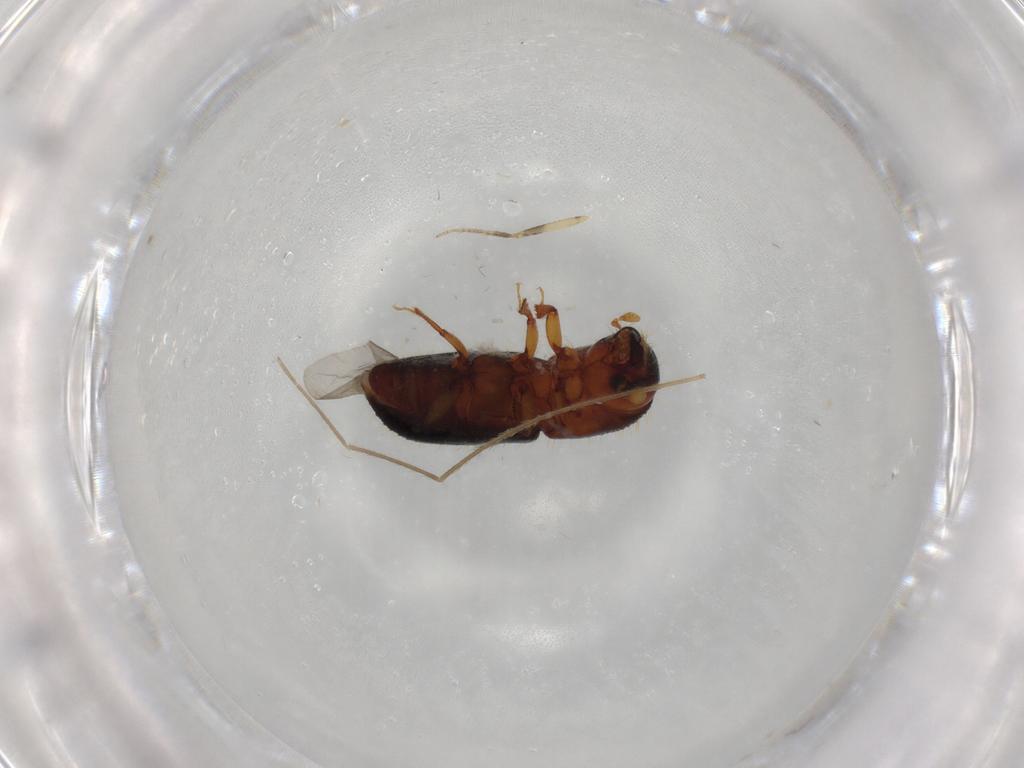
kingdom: Animalia
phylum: Arthropoda
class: Insecta
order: Coleoptera
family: Curculionidae
